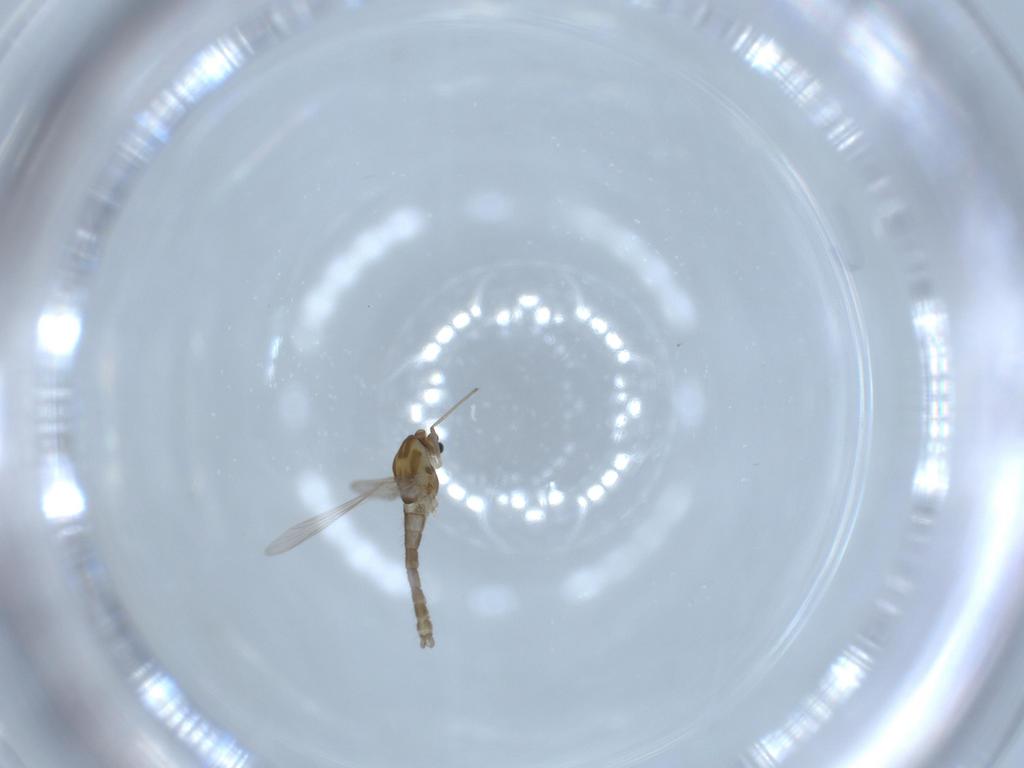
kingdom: Animalia
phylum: Arthropoda
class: Insecta
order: Diptera
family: Chironomidae
